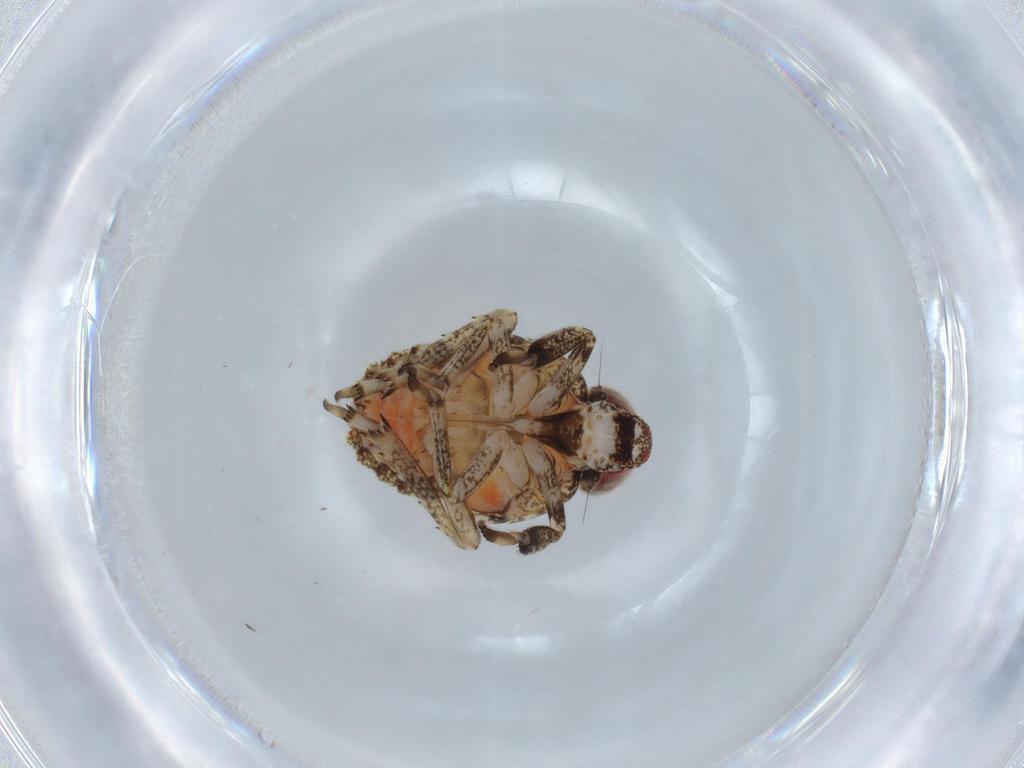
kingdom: Animalia
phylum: Arthropoda
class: Insecta
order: Hemiptera
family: Issidae
